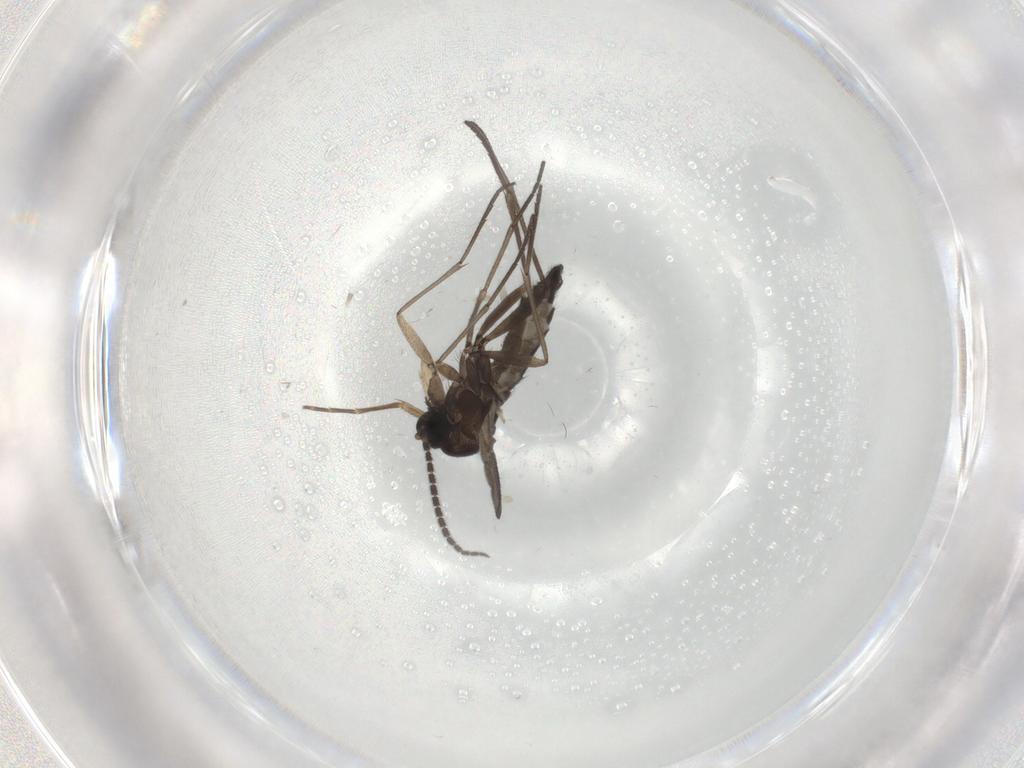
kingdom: Animalia
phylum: Arthropoda
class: Insecta
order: Diptera
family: Sciaridae
